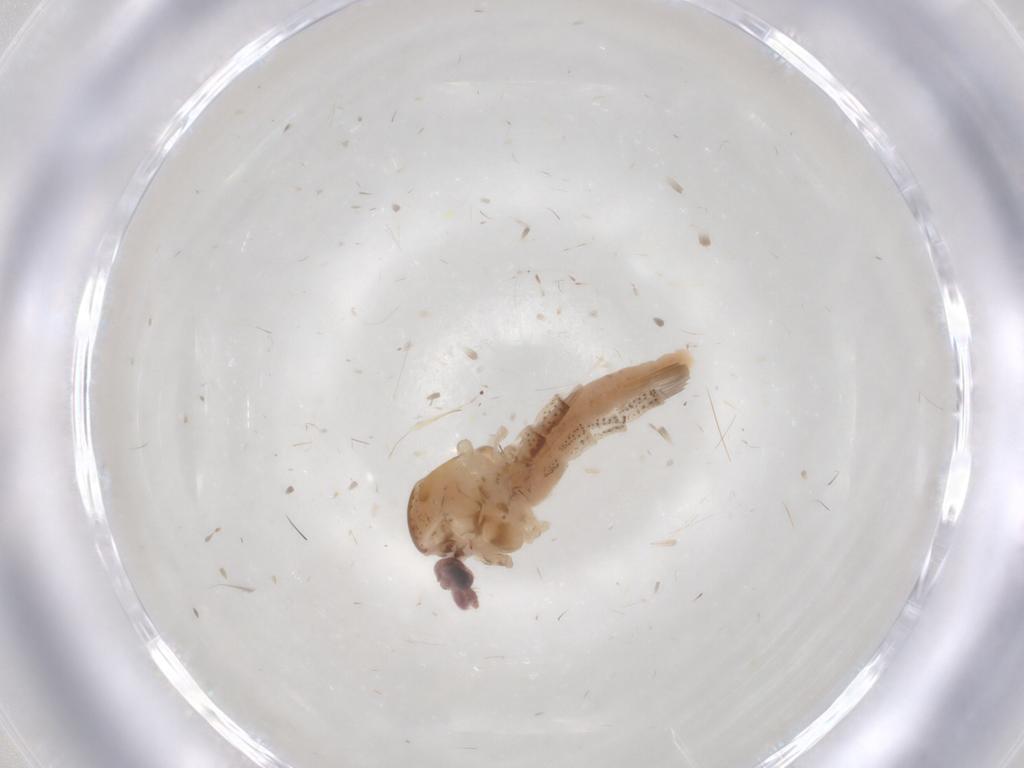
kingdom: Animalia
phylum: Arthropoda
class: Insecta
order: Diptera
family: Chaoboridae
